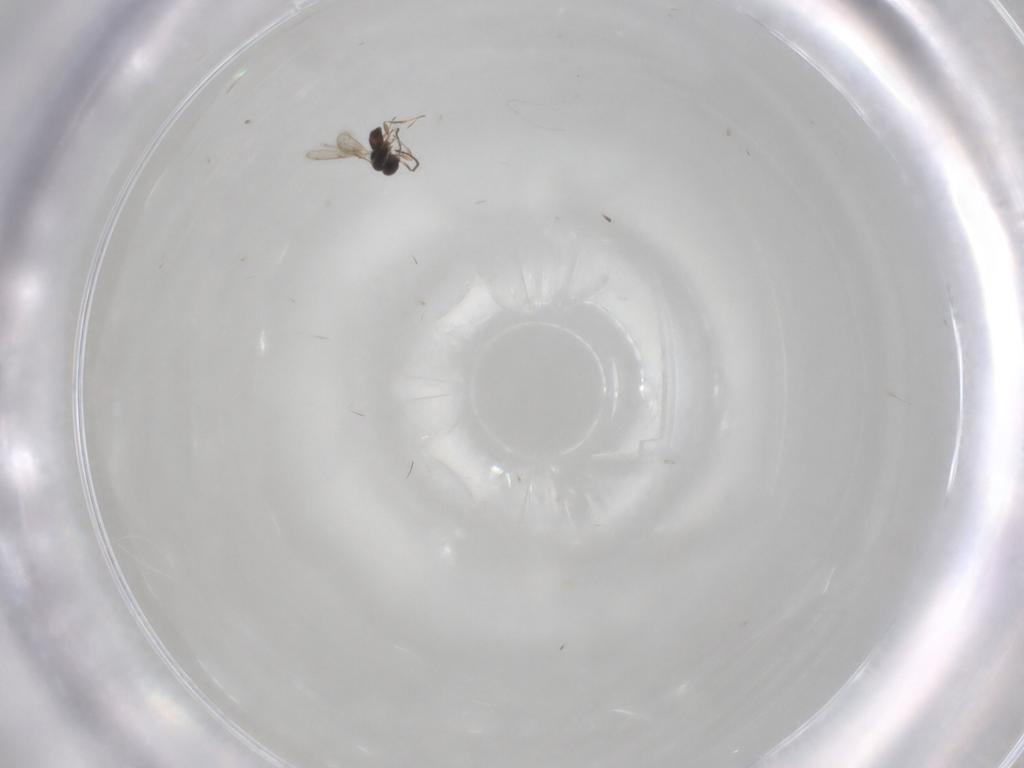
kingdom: Animalia
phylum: Arthropoda
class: Insecta
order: Hymenoptera
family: Scelionidae
